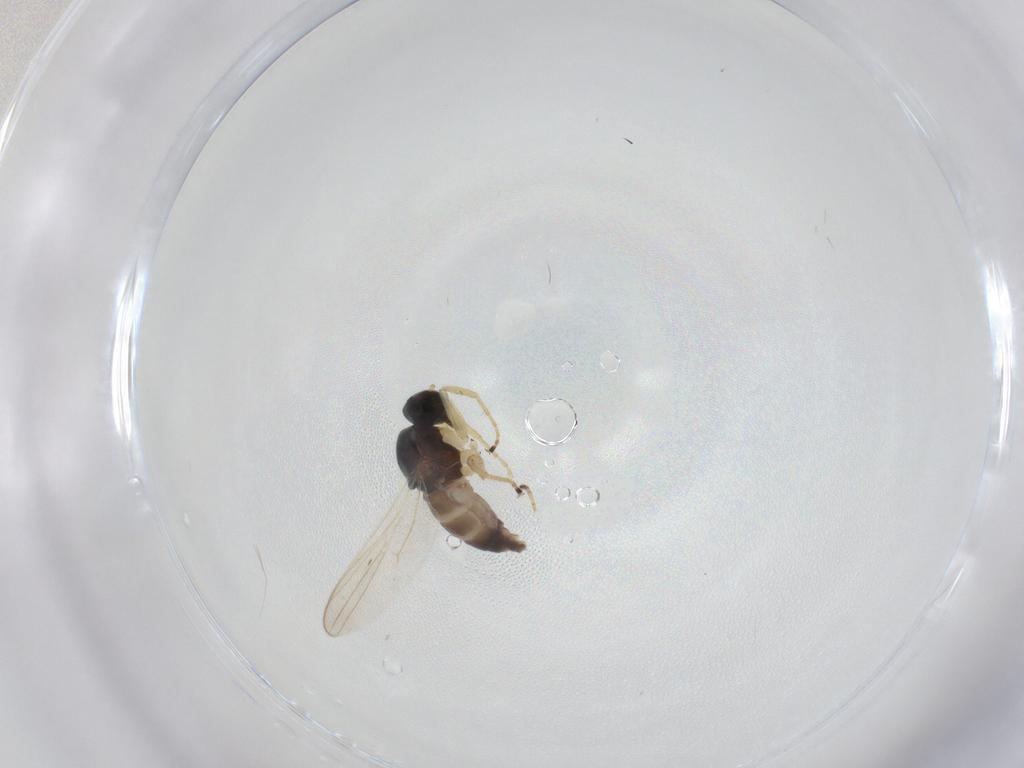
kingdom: Animalia
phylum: Arthropoda
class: Insecta
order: Diptera
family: Hybotidae
